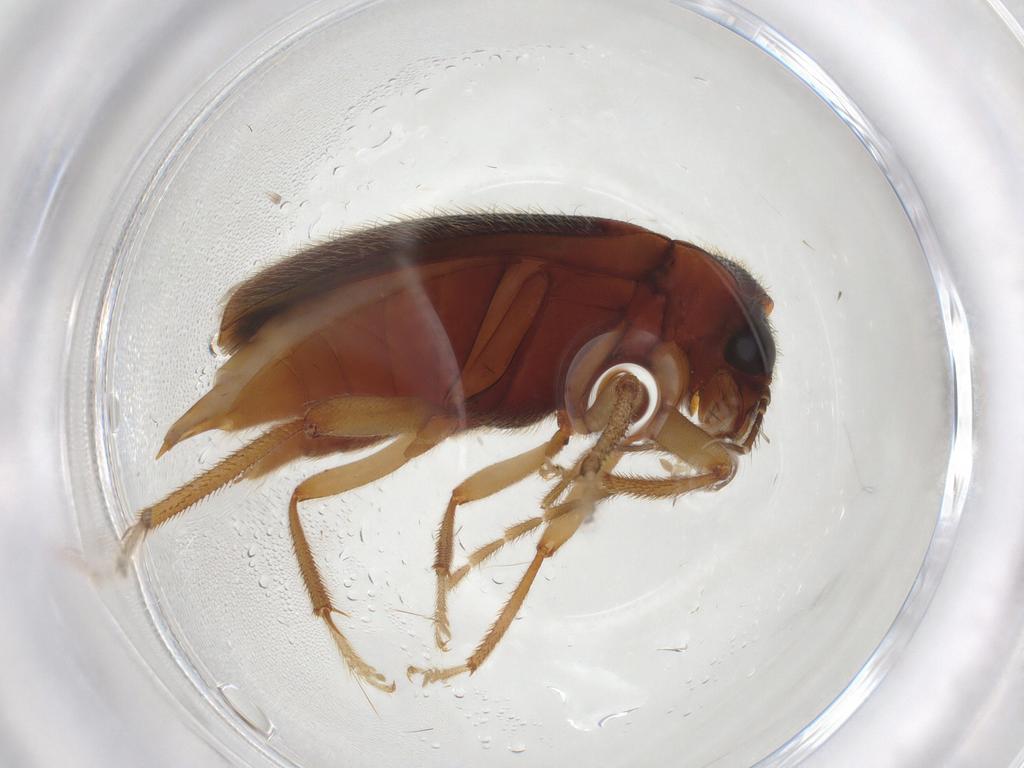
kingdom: Animalia
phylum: Arthropoda
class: Insecta
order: Coleoptera
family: Ptilodactylidae
